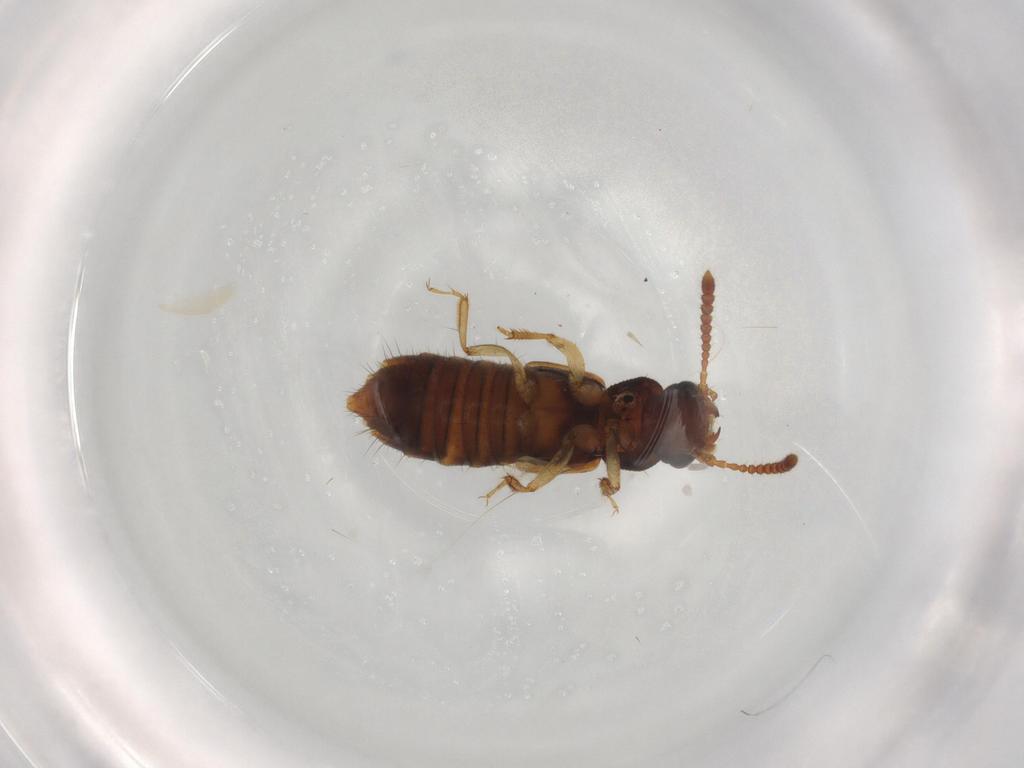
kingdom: Animalia
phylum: Arthropoda
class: Insecta
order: Coleoptera
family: Staphylinidae
